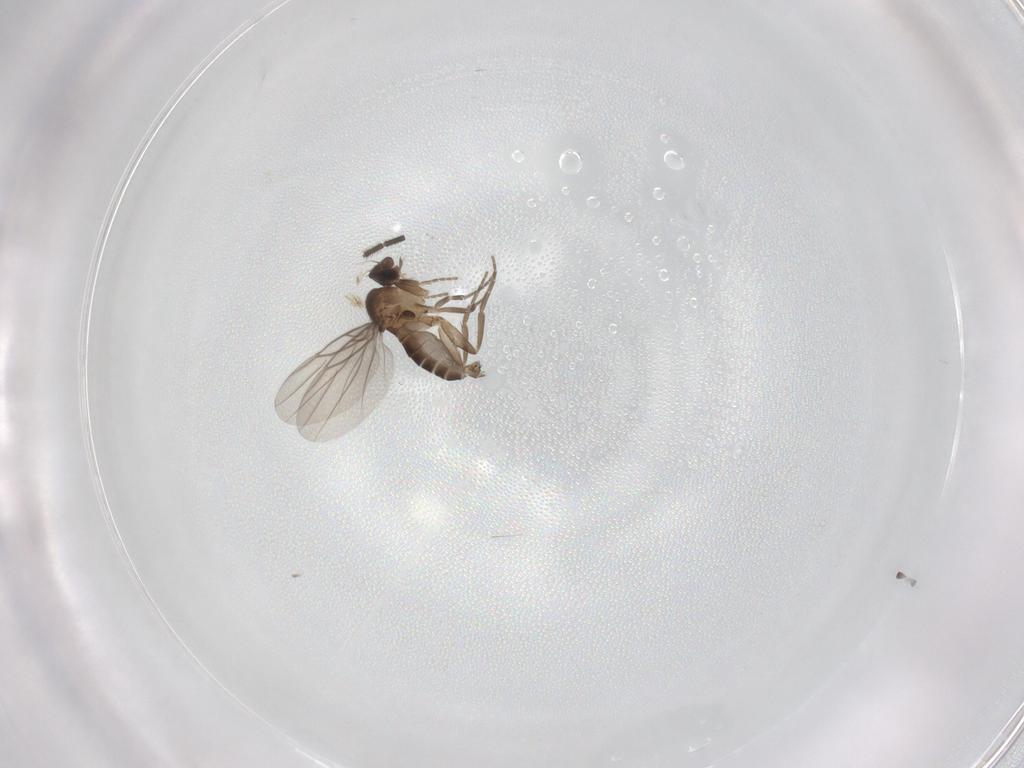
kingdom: Animalia
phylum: Arthropoda
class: Insecta
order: Diptera
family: Sciaridae
